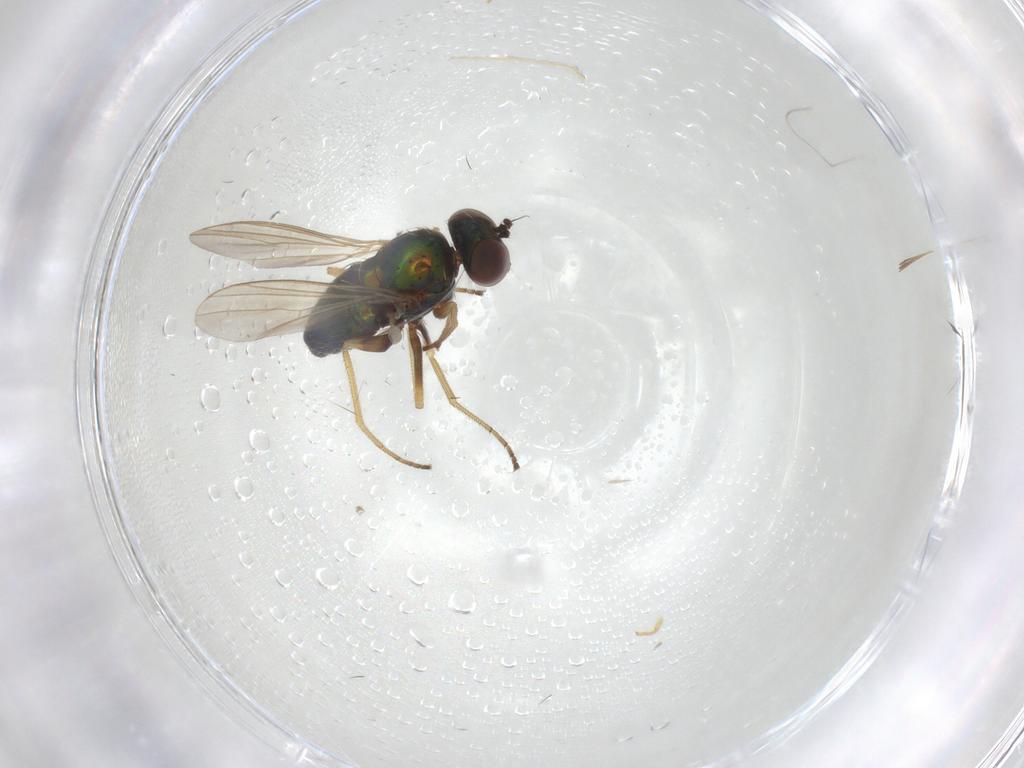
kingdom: Animalia
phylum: Arthropoda
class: Insecta
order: Diptera
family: Dolichopodidae
